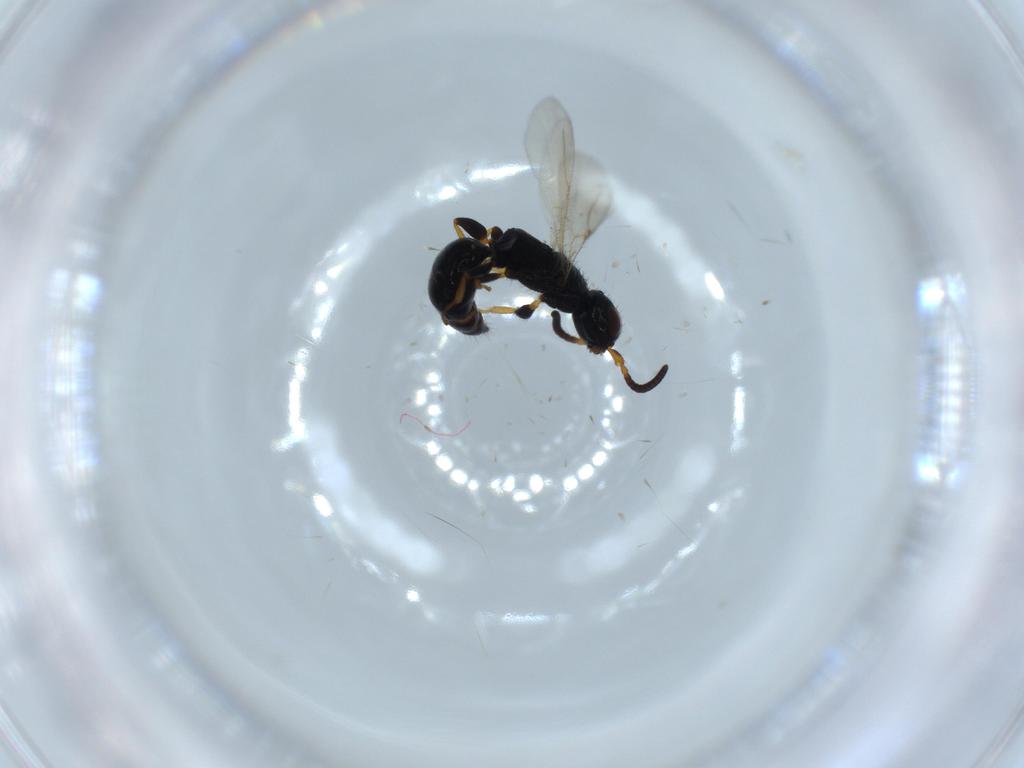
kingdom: Animalia
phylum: Arthropoda
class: Insecta
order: Hymenoptera
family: Bethylidae
